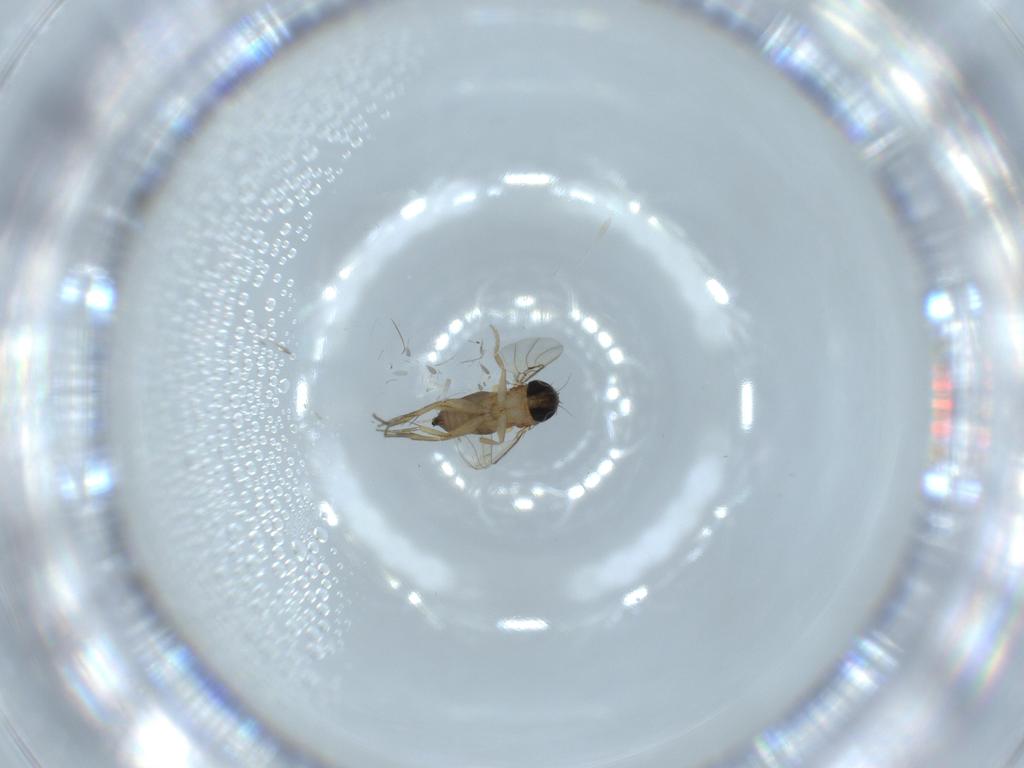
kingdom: Animalia
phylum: Arthropoda
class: Insecta
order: Diptera
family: Phoridae
